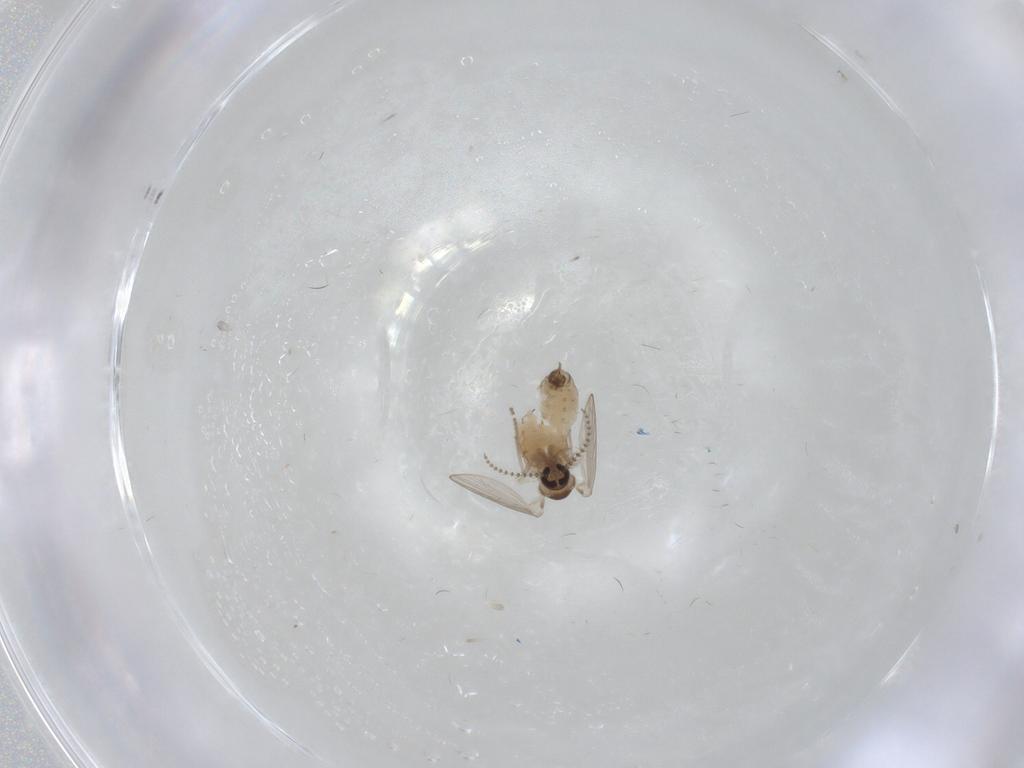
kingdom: Animalia
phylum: Arthropoda
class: Insecta
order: Diptera
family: Psychodidae
